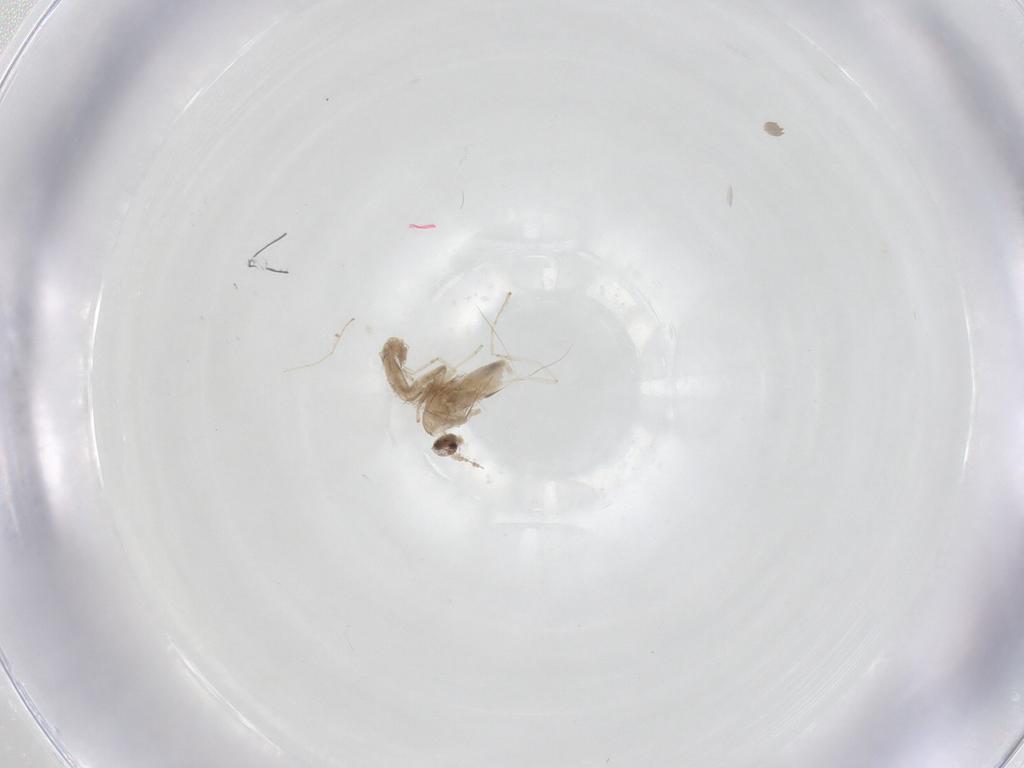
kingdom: Animalia
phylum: Arthropoda
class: Insecta
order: Diptera
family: Cecidomyiidae
